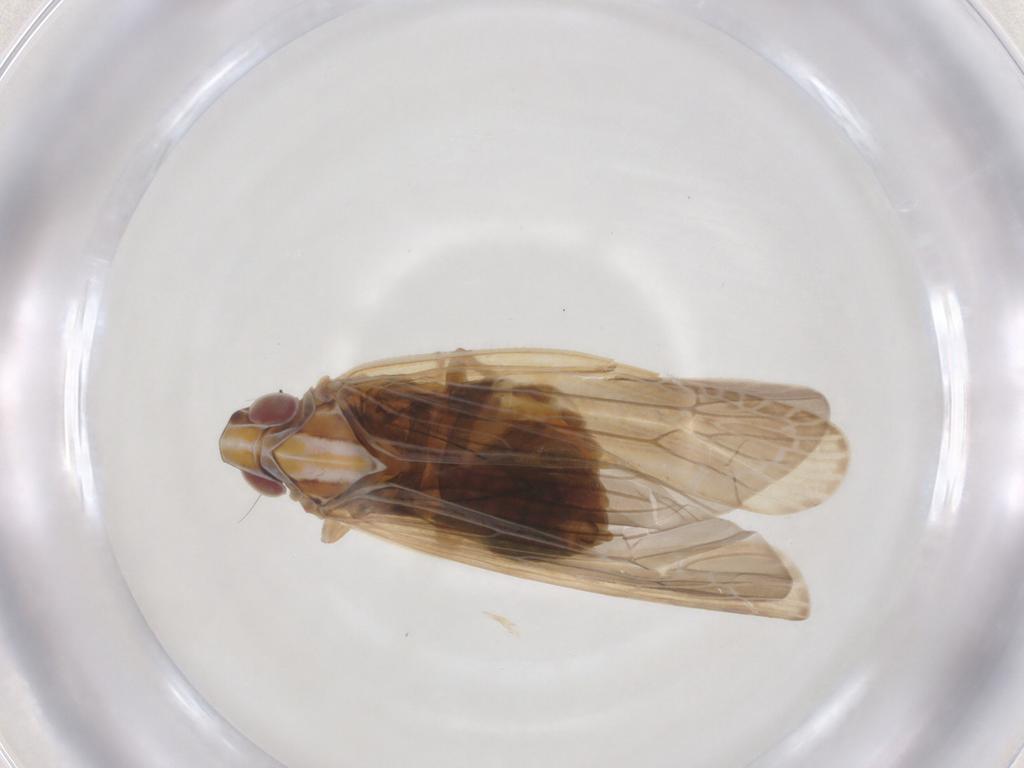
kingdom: Animalia
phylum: Arthropoda
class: Insecta
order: Hemiptera
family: Achilidae
